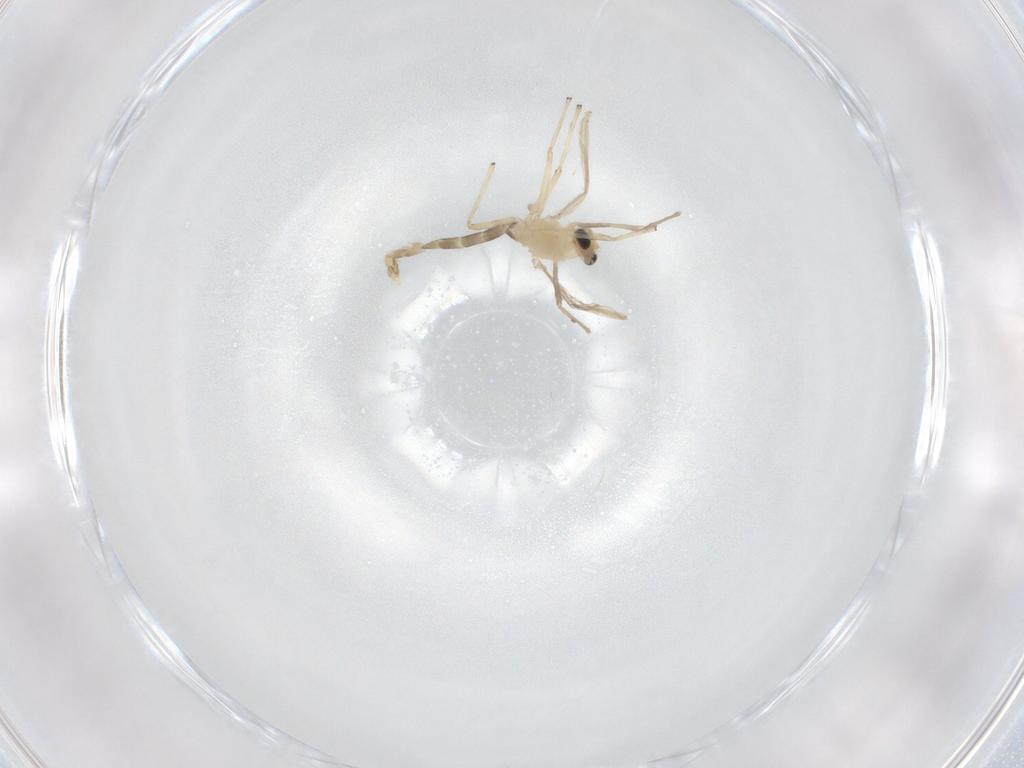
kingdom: Animalia
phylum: Arthropoda
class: Insecta
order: Diptera
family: Chironomidae
